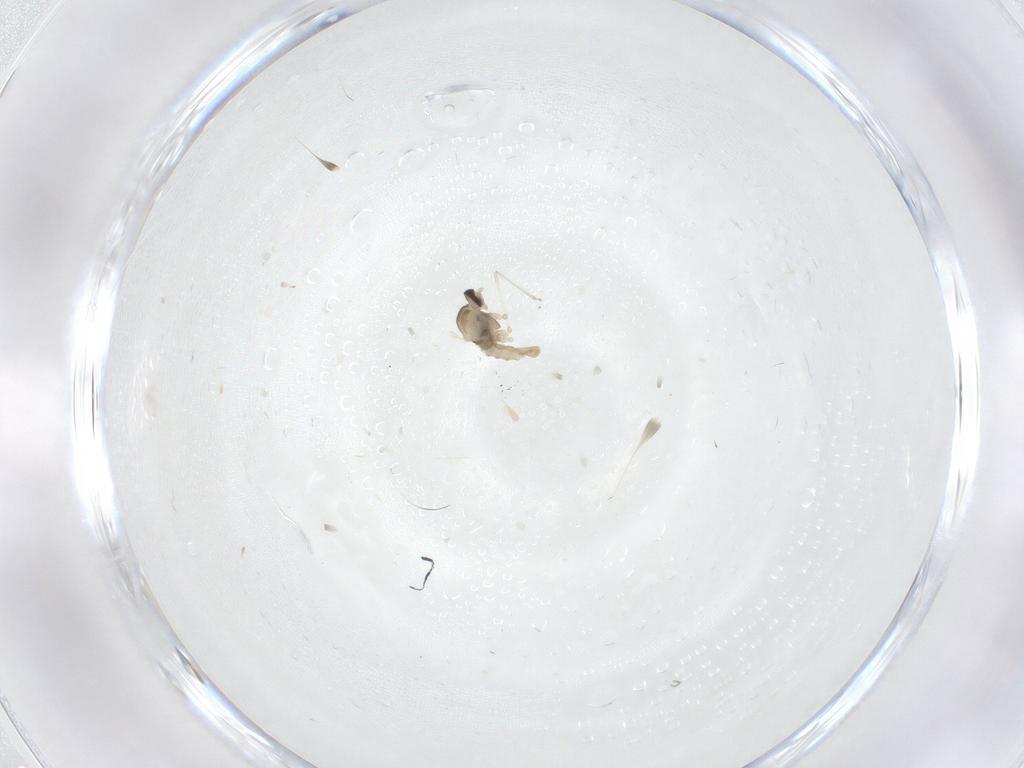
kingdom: Animalia
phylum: Arthropoda
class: Insecta
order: Diptera
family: Cecidomyiidae
